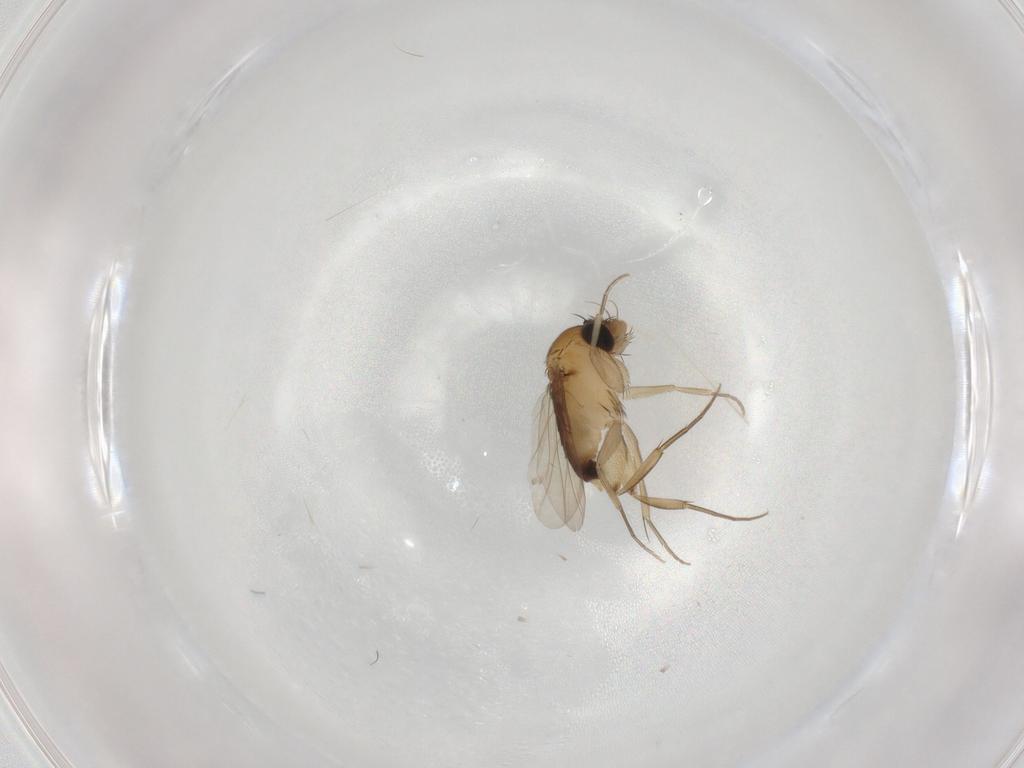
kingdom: Animalia
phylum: Arthropoda
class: Insecta
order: Diptera
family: Phoridae
